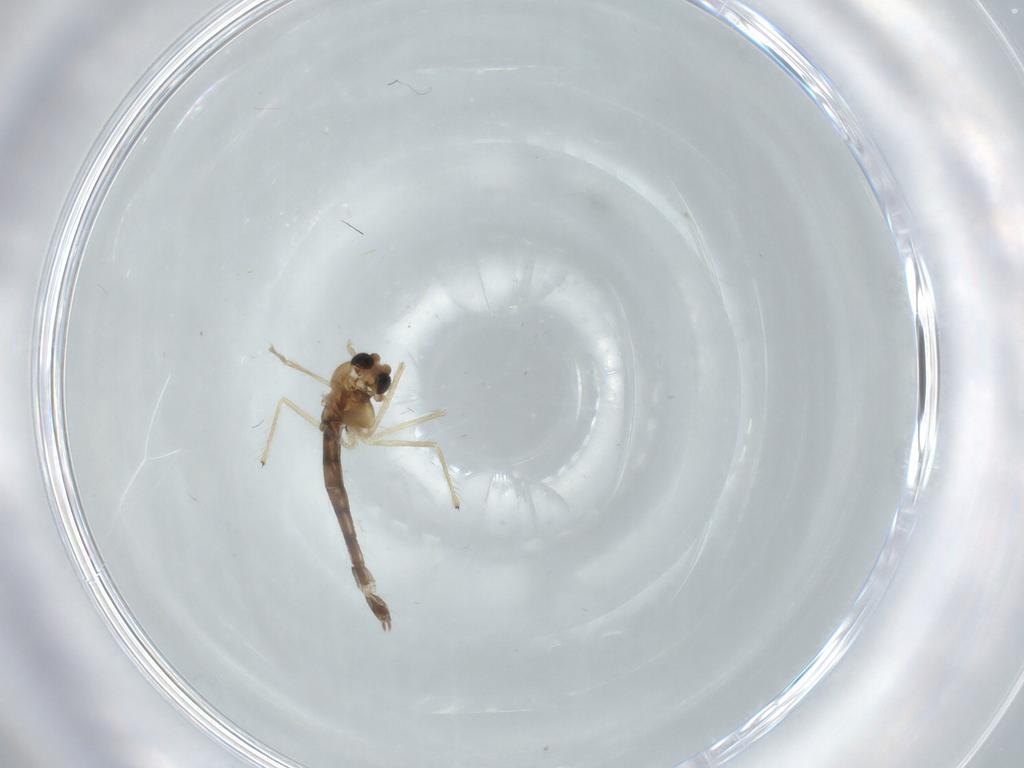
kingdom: Animalia
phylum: Arthropoda
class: Insecta
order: Diptera
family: Chironomidae
